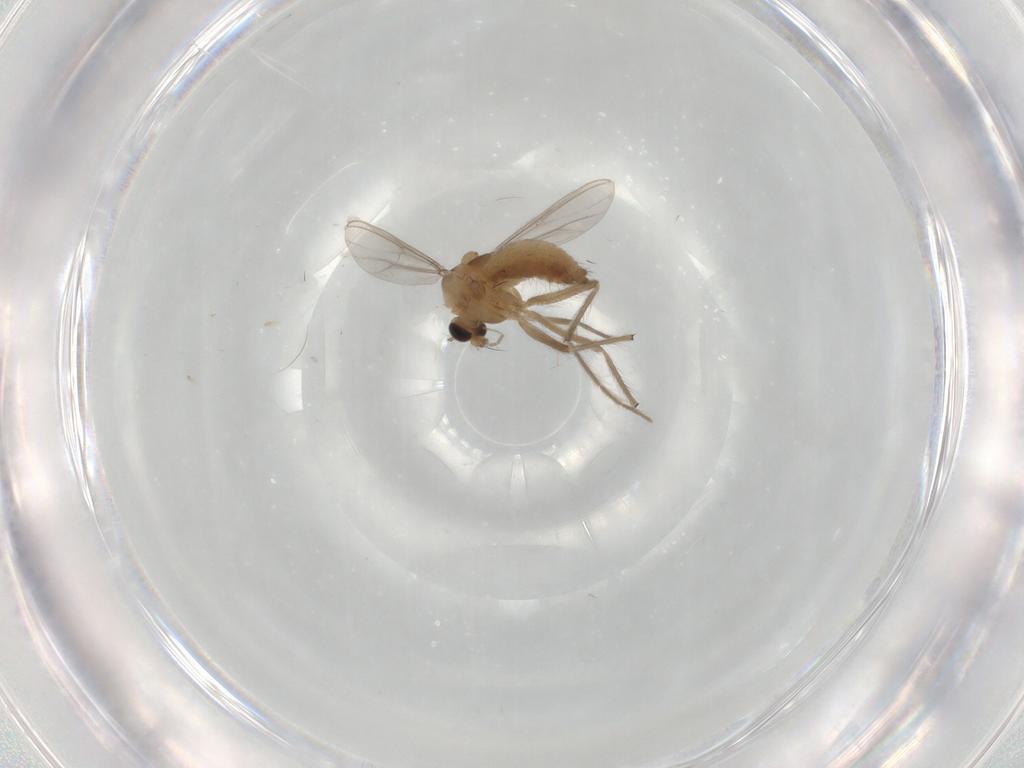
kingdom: Animalia
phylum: Arthropoda
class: Insecta
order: Diptera
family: Chironomidae
